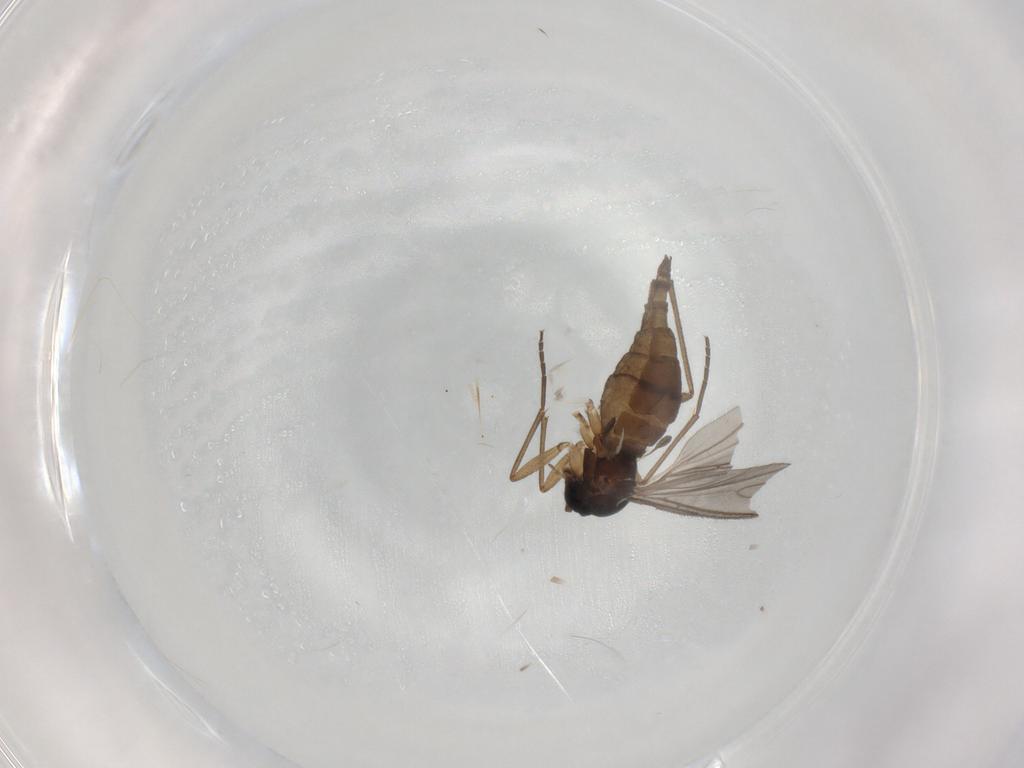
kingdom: Animalia
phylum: Arthropoda
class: Insecta
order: Diptera
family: Sciaridae
